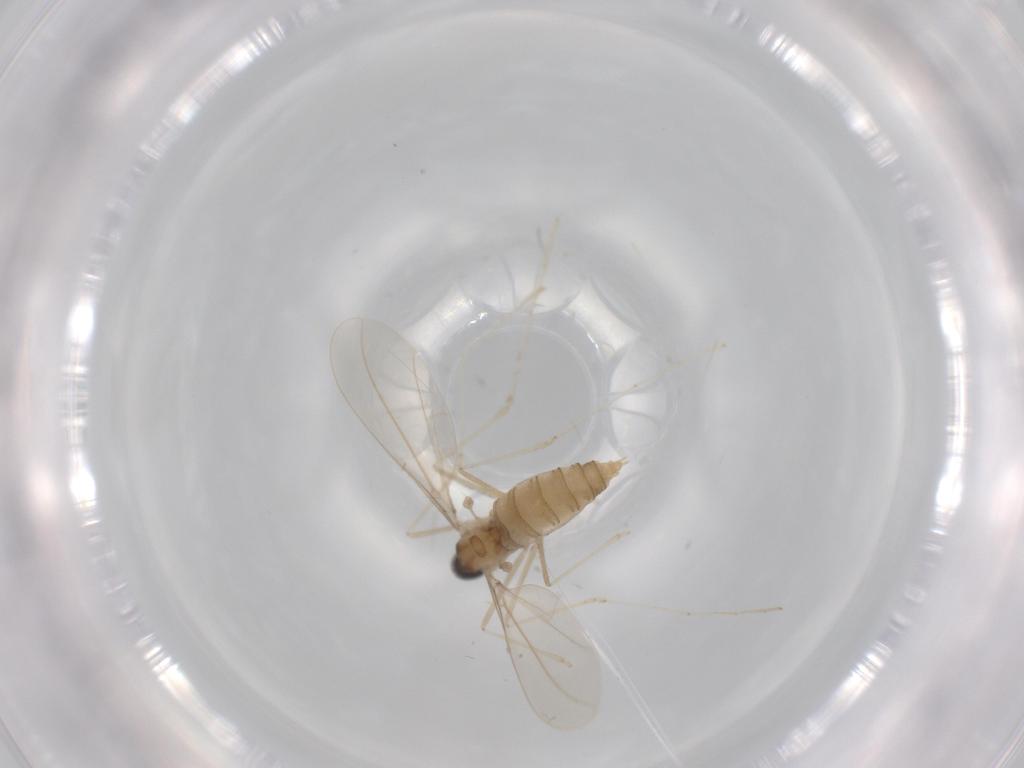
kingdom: Animalia
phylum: Arthropoda
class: Insecta
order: Diptera
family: Cecidomyiidae
